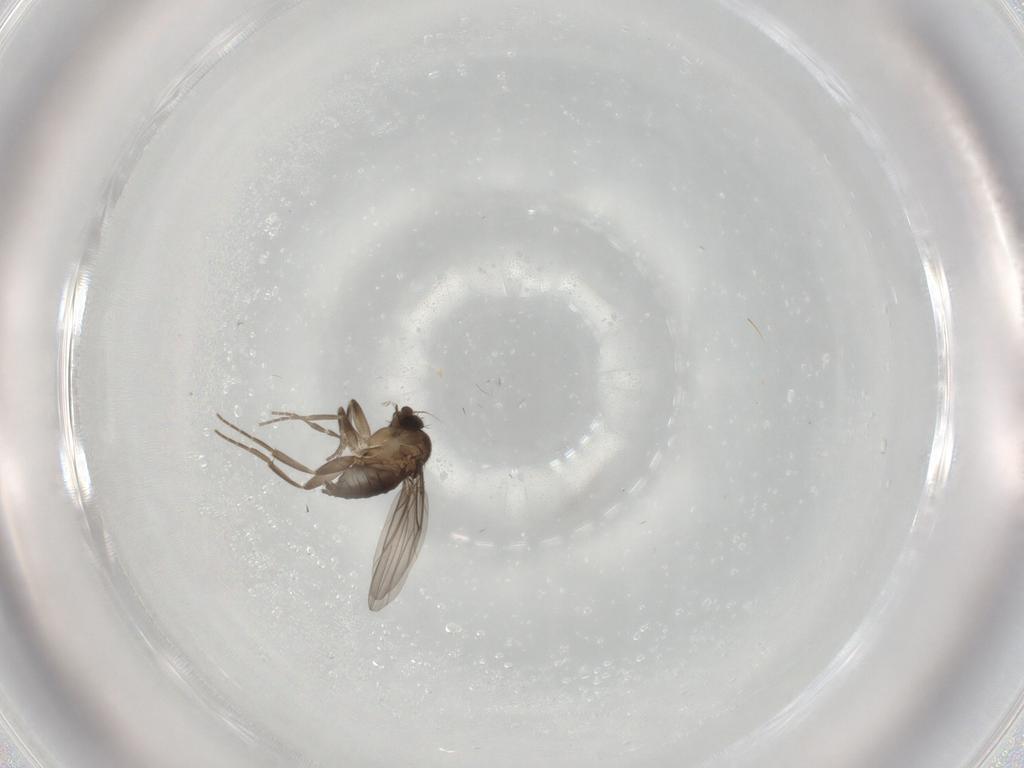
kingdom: Animalia
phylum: Arthropoda
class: Insecta
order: Diptera
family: Phoridae
